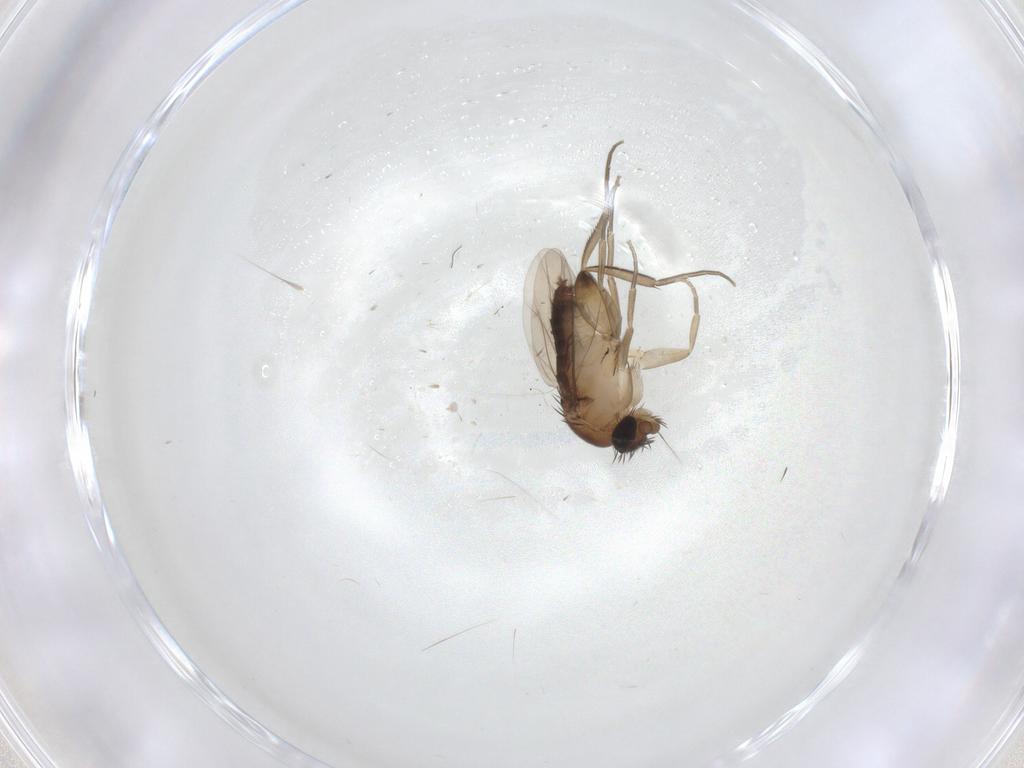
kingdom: Animalia
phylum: Arthropoda
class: Insecta
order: Diptera
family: Phoridae
